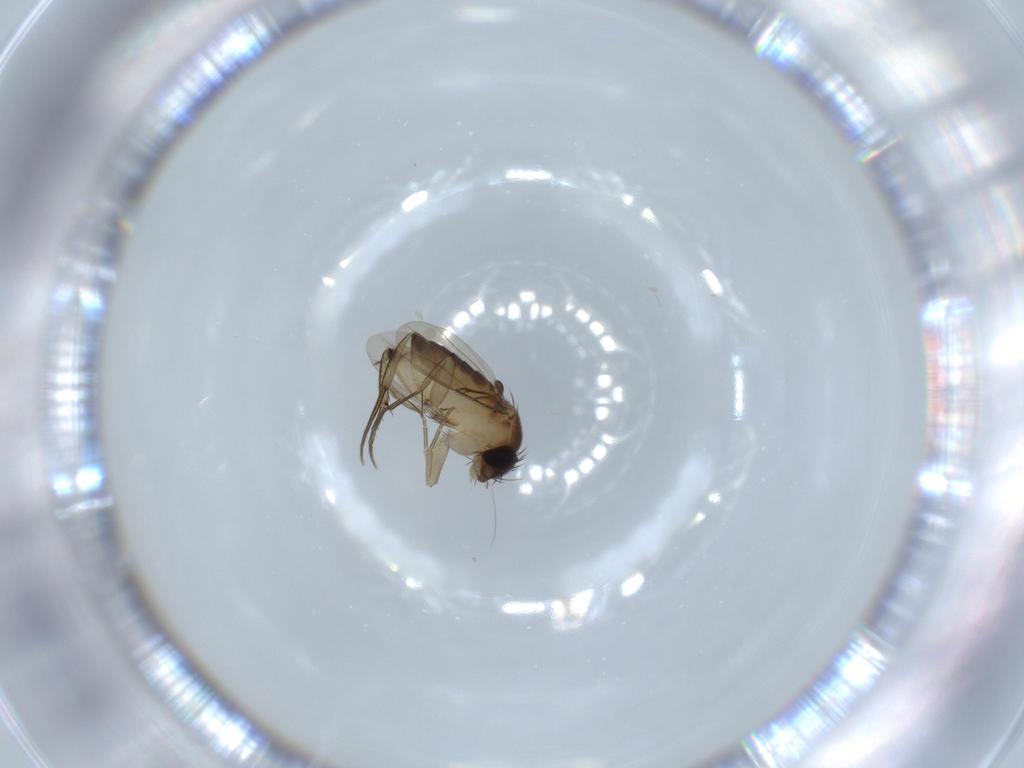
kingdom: Animalia
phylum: Arthropoda
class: Insecta
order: Diptera
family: Phoridae
